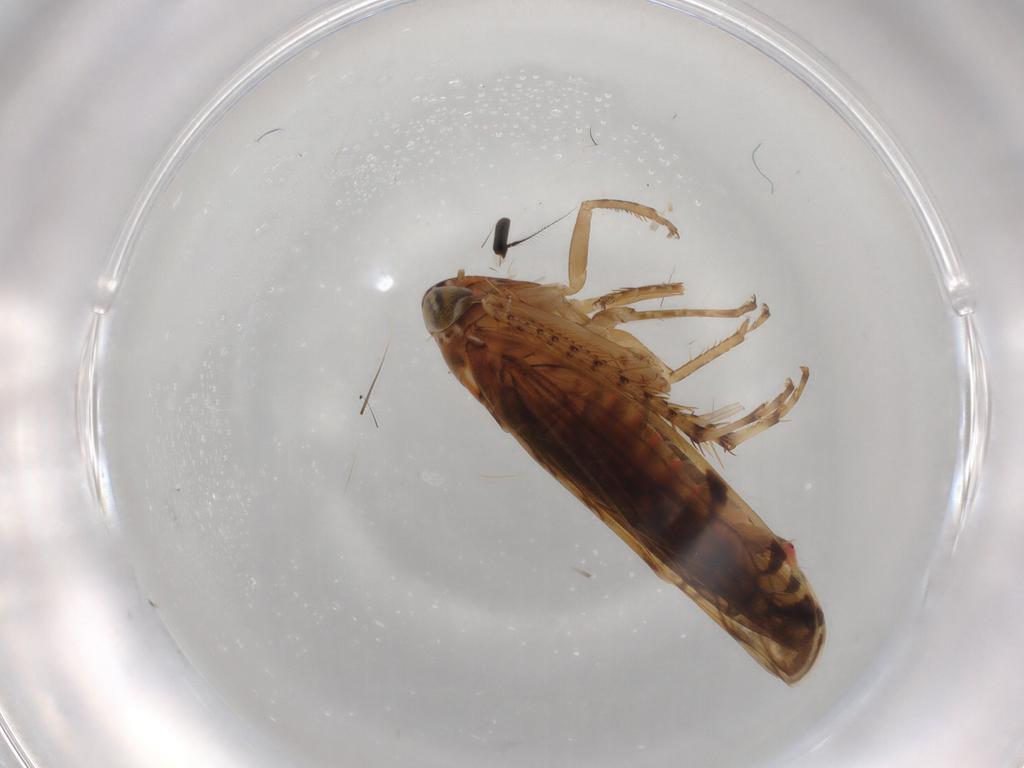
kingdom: Animalia
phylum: Arthropoda
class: Insecta
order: Hemiptera
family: Cicadellidae
